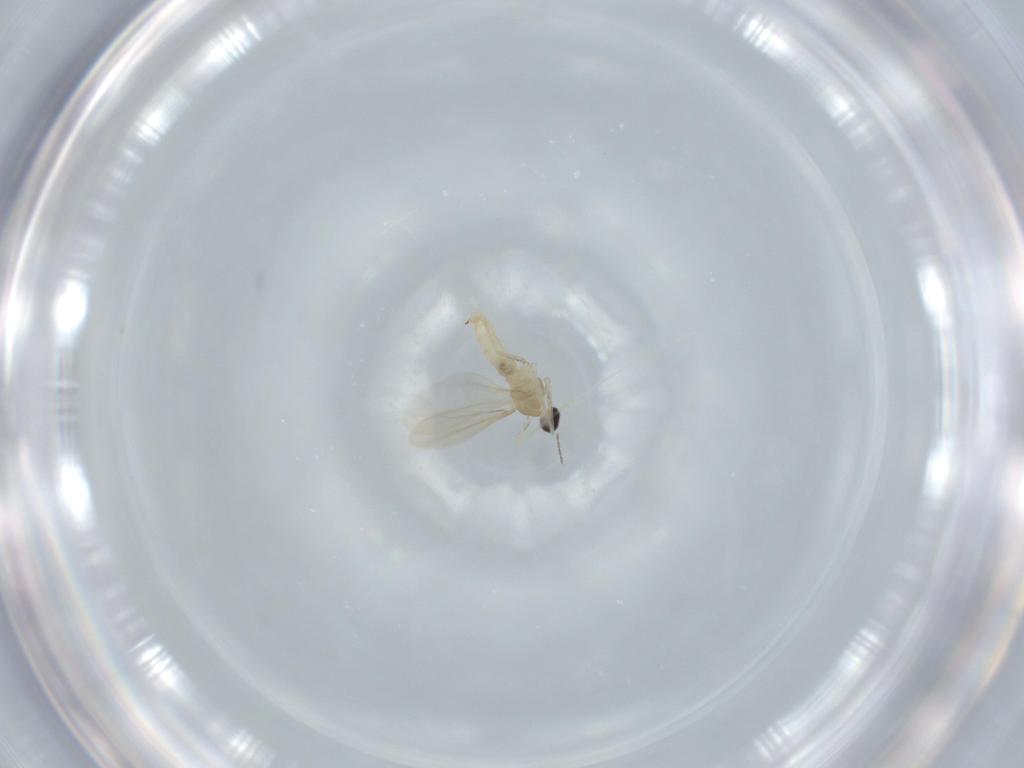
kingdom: Animalia
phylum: Arthropoda
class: Insecta
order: Diptera
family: Cecidomyiidae
